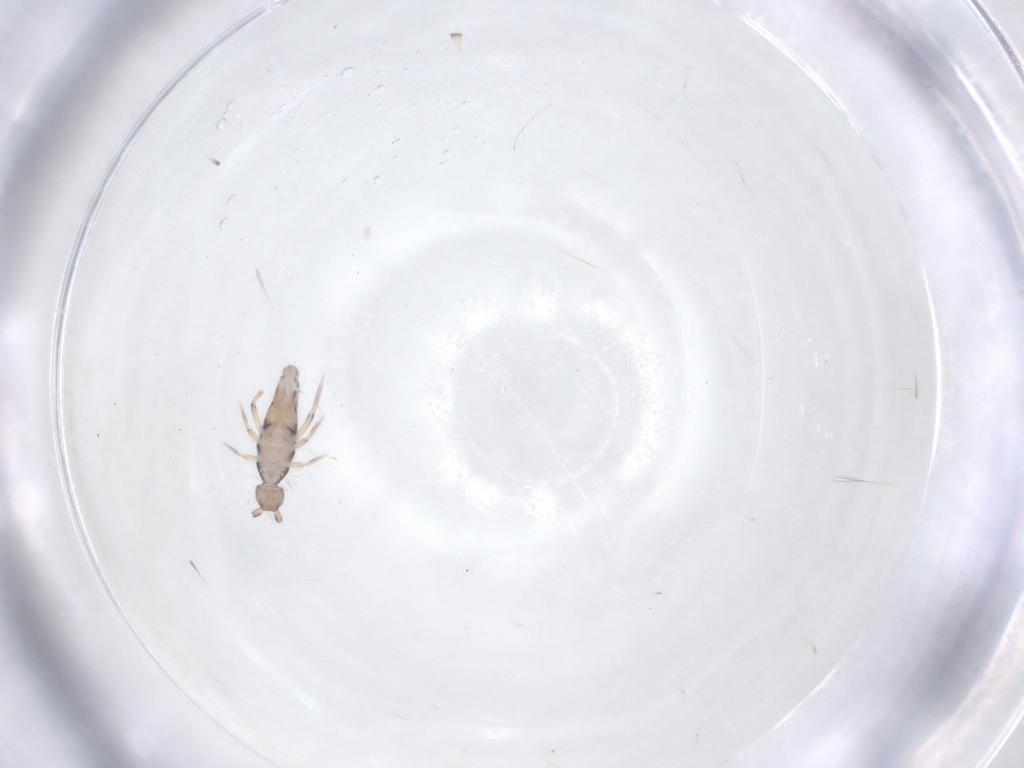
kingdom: Animalia
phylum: Arthropoda
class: Collembola
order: Entomobryomorpha
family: Entomobryidae
